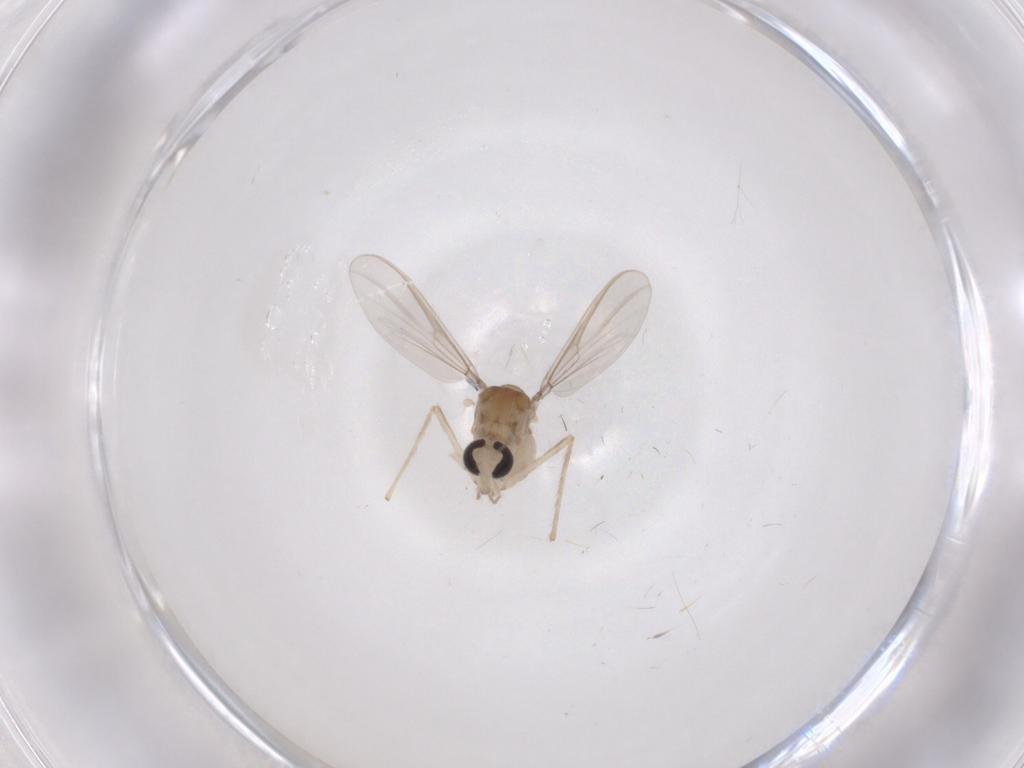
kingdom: Animalia
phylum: Arthropoda
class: Insecta
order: Diptera
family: Chironomidae
